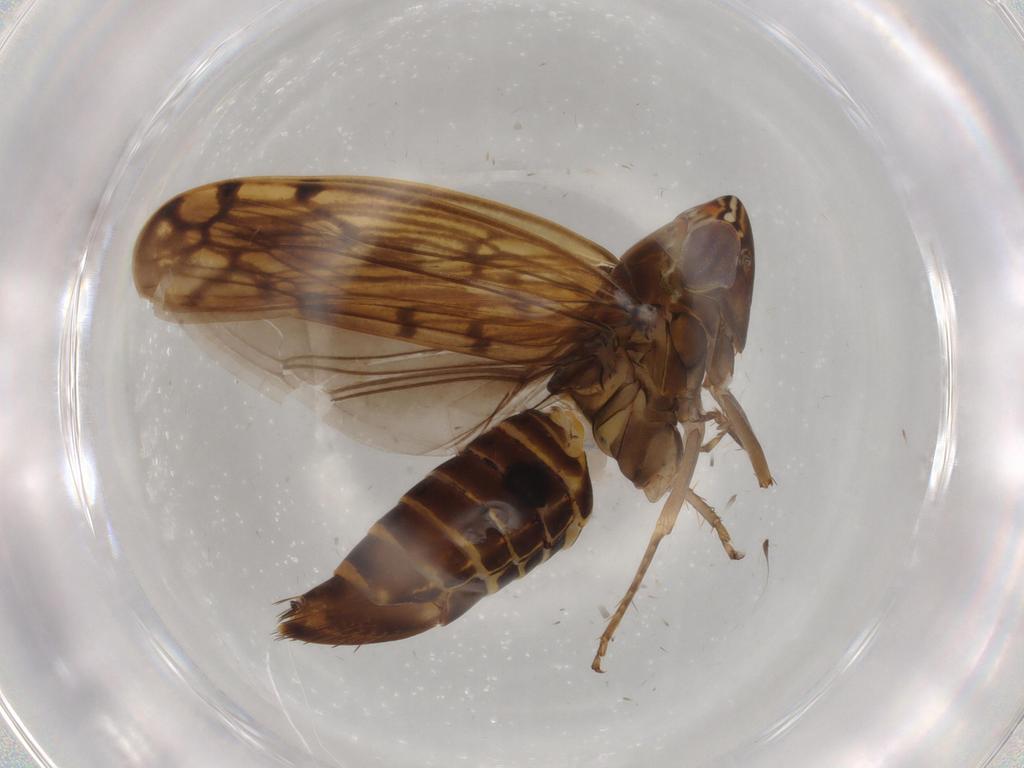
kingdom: Animalia
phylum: Arthropoda
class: Insecta
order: Hemiptera
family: Cicadellidae
